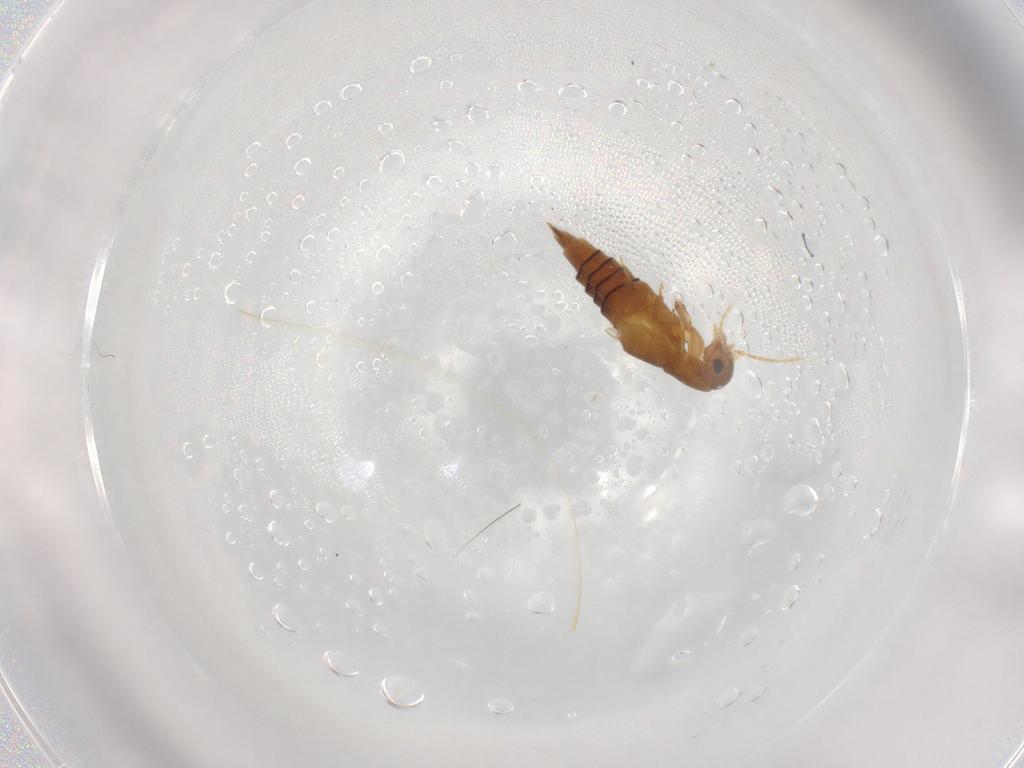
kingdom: Animalia
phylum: Arthropoda
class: Insecta
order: Coleoptera
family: Staphylinidae
